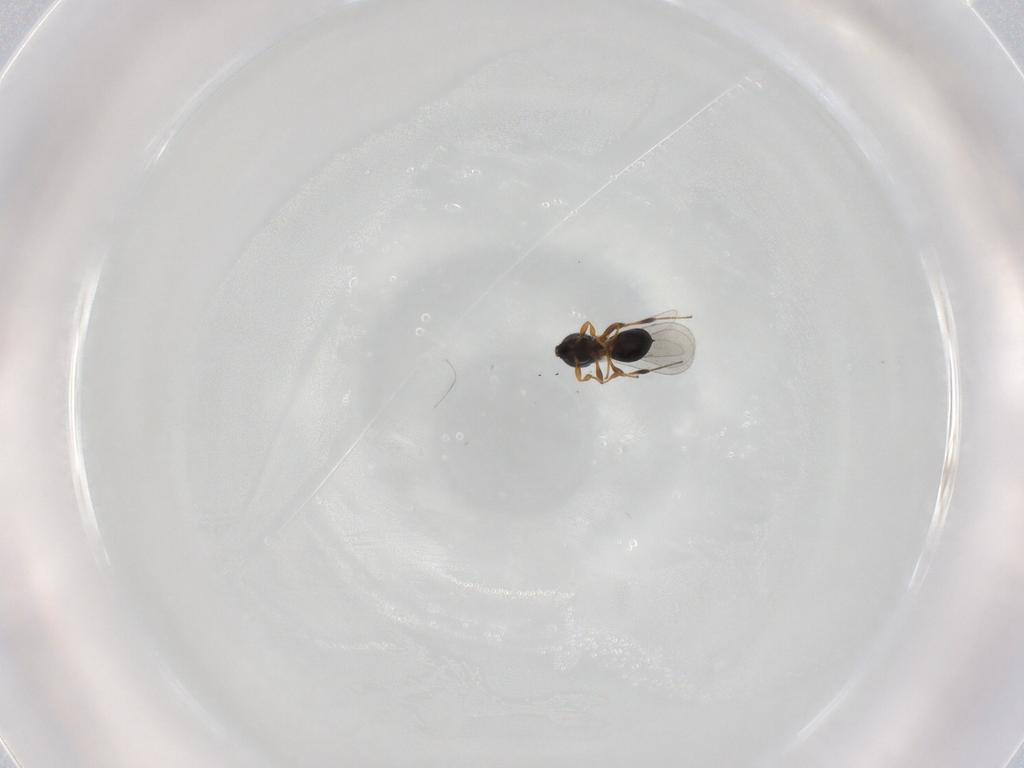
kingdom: Animalia
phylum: Arthropoda
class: Insecta
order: Hymenoptera
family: Platygastridae
